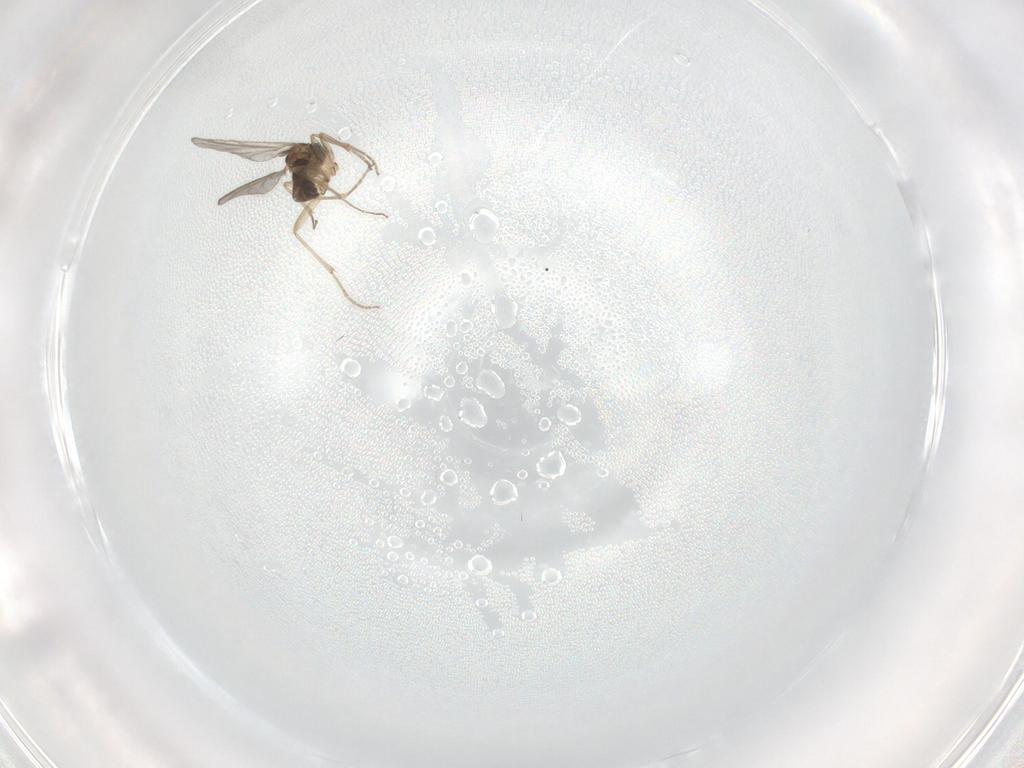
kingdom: Animalia
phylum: Arthropoda
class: Insecta
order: Diptera
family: Sciaridae
